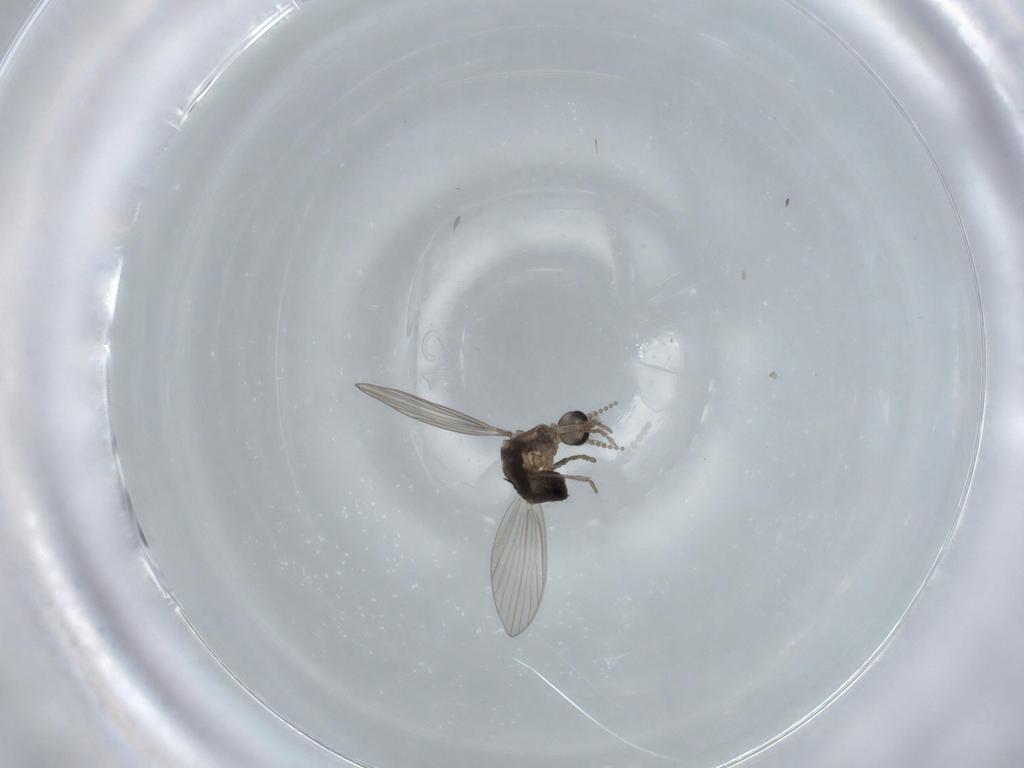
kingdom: Animalia
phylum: Arthropoda
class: Insecta
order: Diptera
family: Psychodidae
